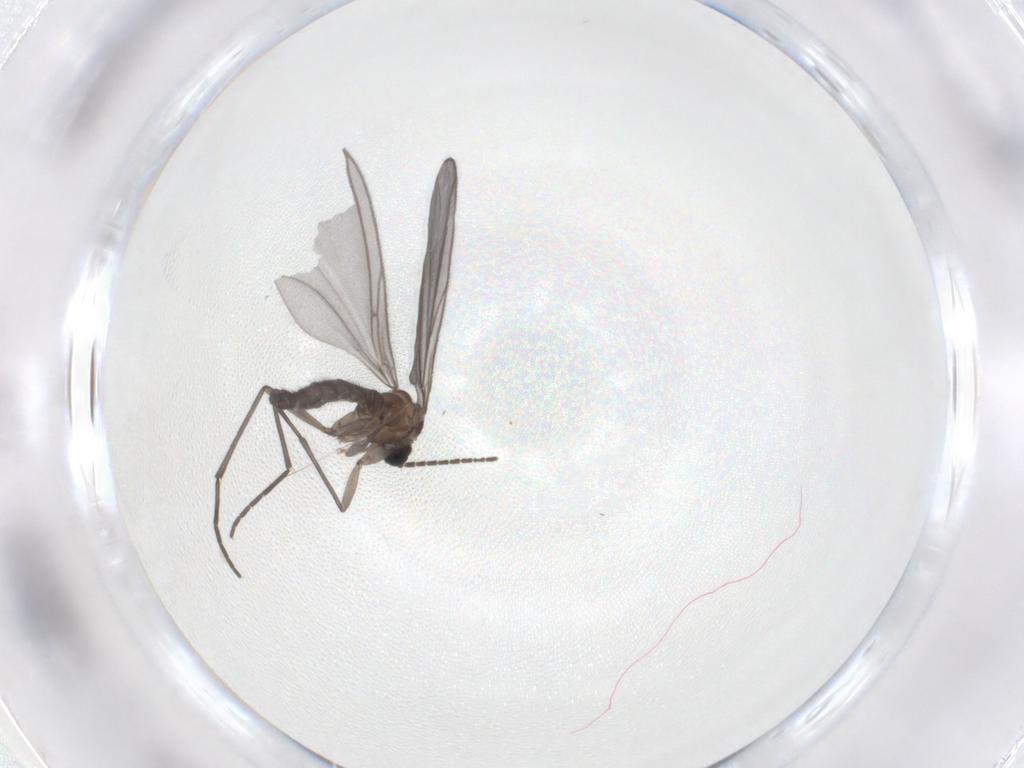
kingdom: Animalia
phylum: Arthropoda
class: Insecta
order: Diptera
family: Sciaridae
